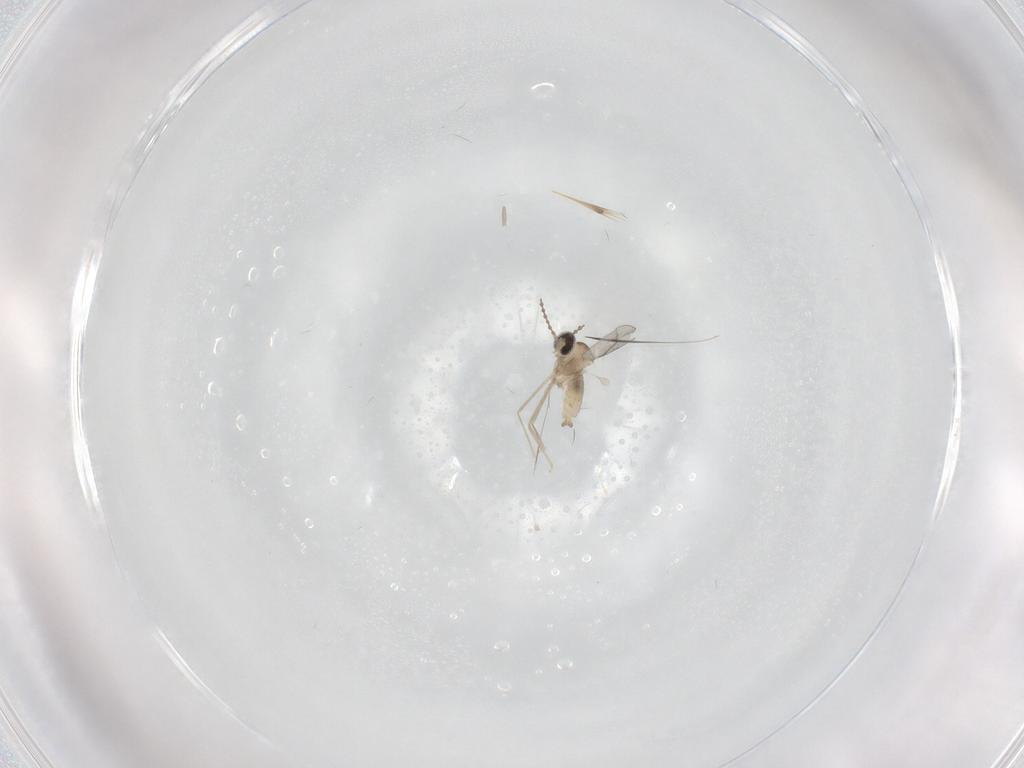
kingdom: Animalia
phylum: Arthropoda
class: Insecta
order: Diptera
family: Cecidomyiidae
